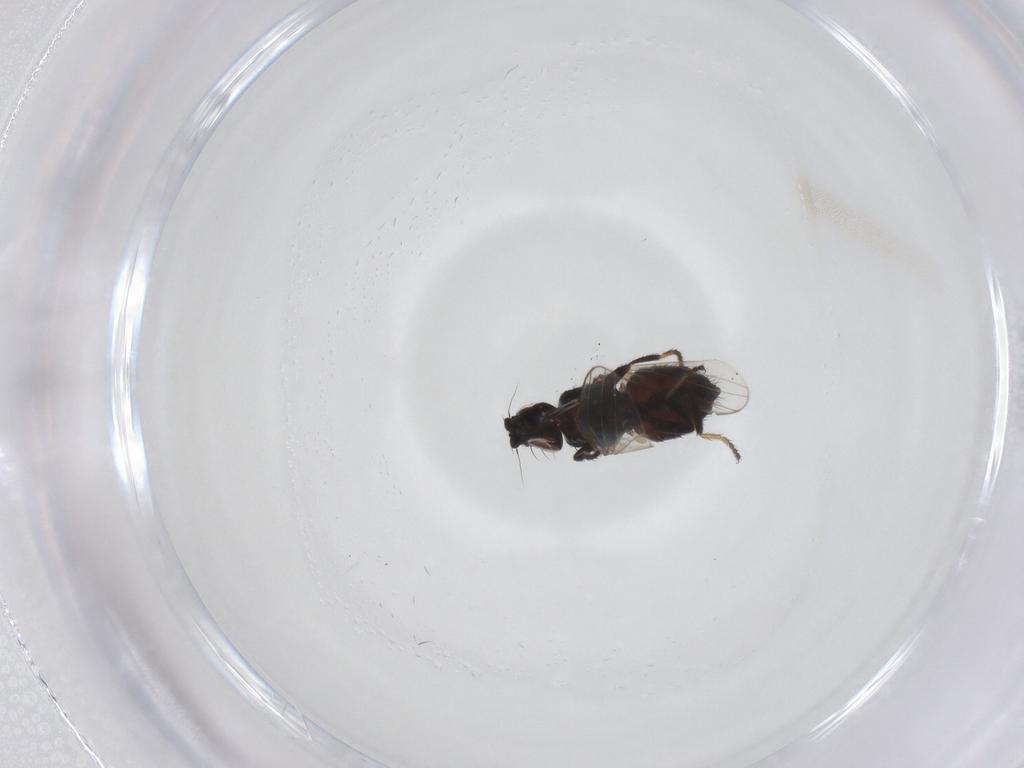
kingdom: Animalia
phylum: Arthropoda
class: Insecta
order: Diptera
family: Milichiidae
